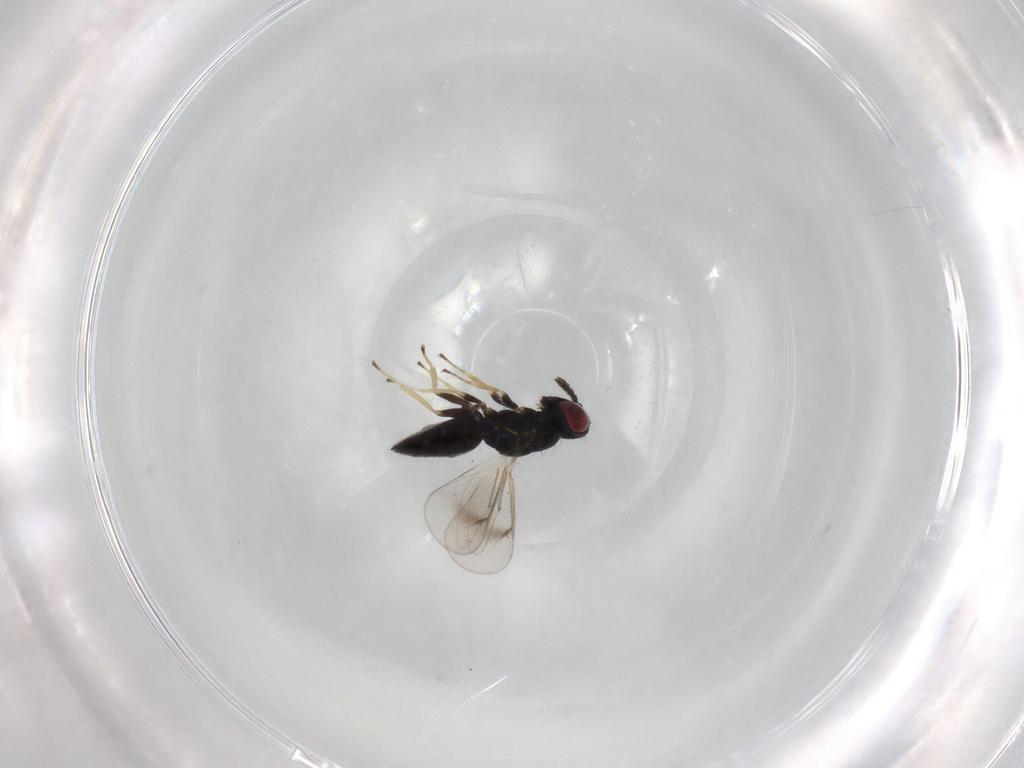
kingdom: Animalia
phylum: Arthropoda
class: Insecta
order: Hymenoptera
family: Eulophidae
